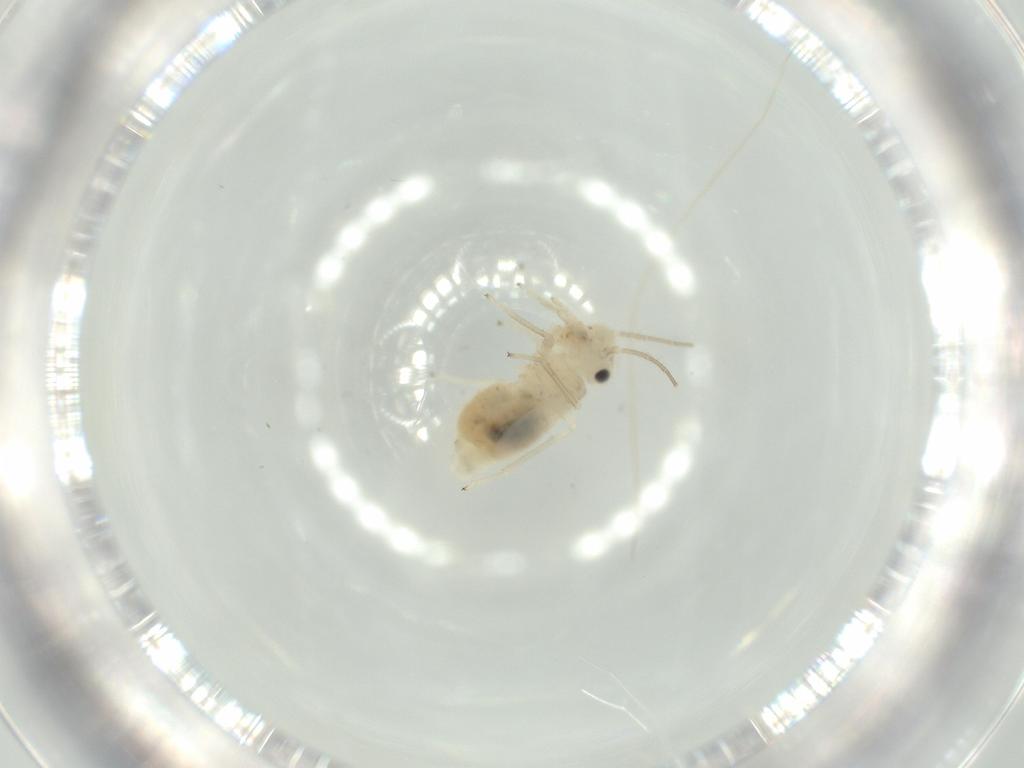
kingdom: Animalia
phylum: Arthropoda
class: Insecta
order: Psocodea
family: Caeciliusidae
